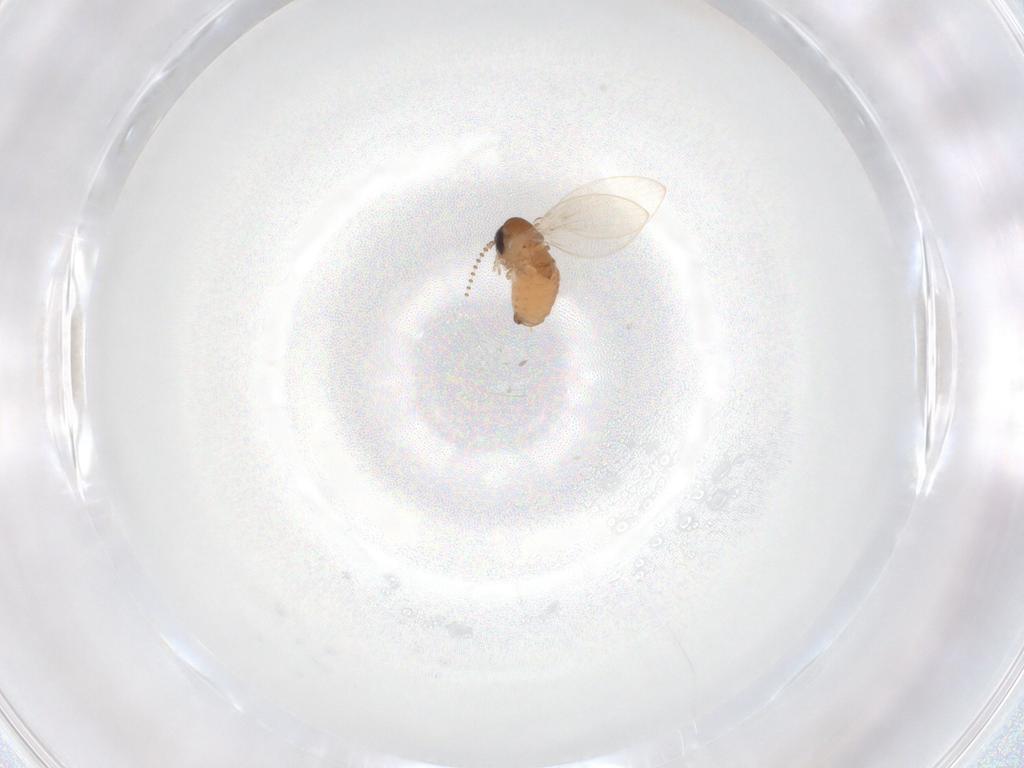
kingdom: Animalia
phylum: Arthropoda
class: Insecta
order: Diptera
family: Psychodidae
